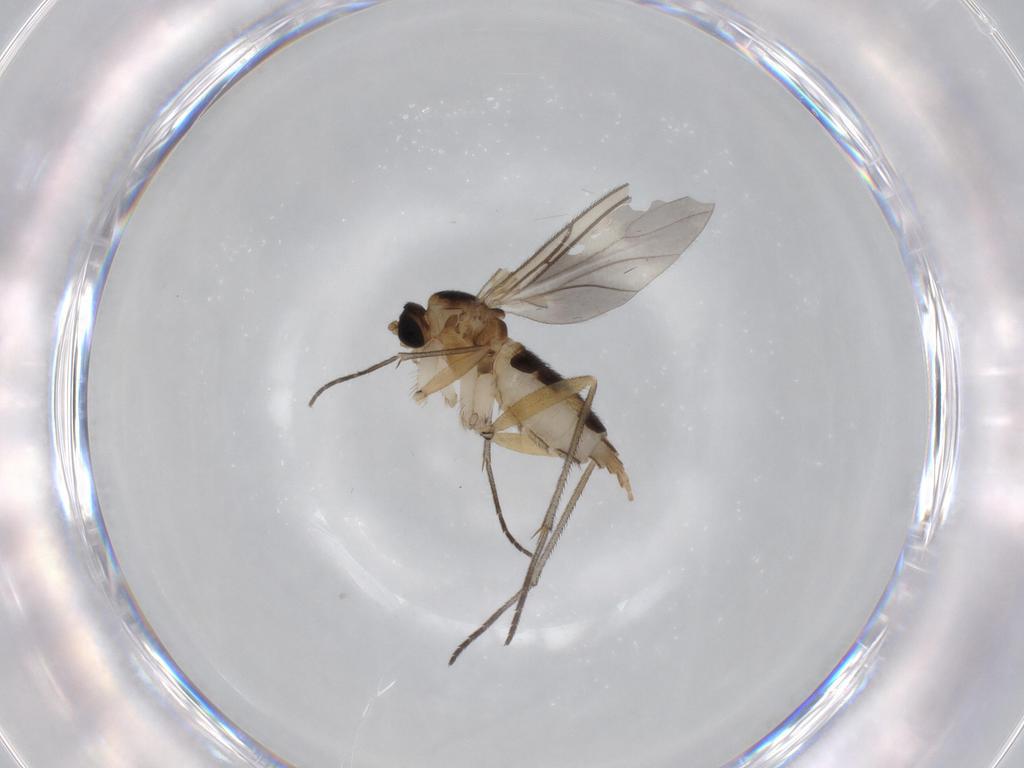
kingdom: Animalia
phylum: Arthropoda
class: Insecta
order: Diptera
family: Sciaridae
